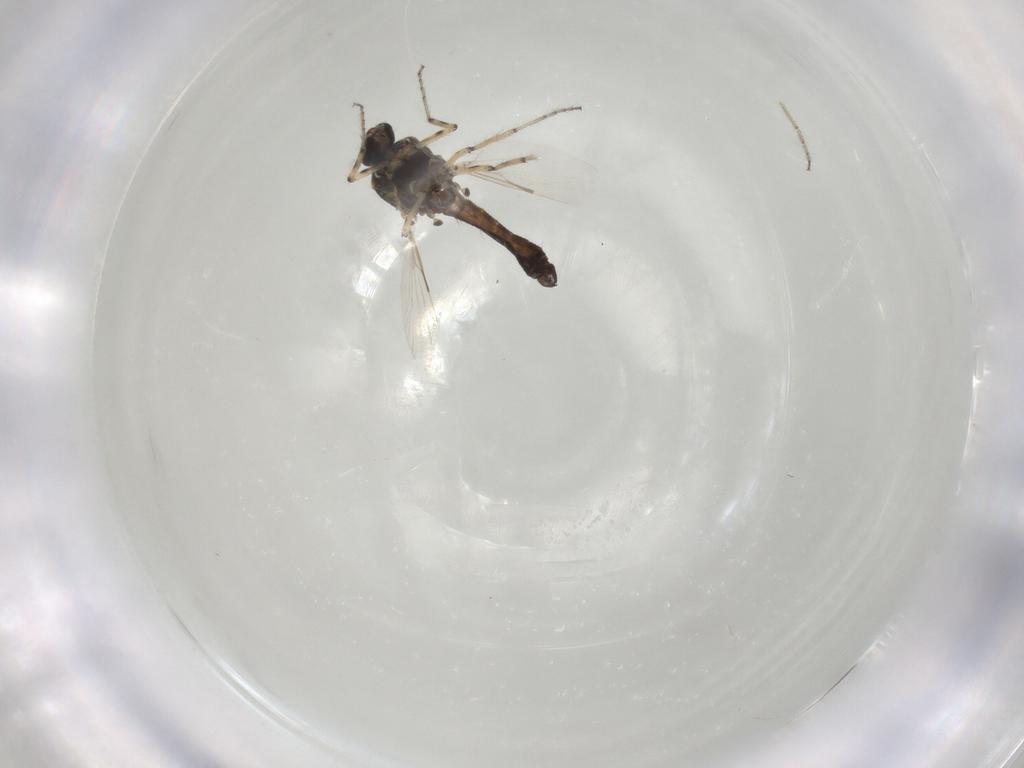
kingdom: Animalia
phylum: Arthropoda
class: Insecta
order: Diptera
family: Ceratopogonidae
